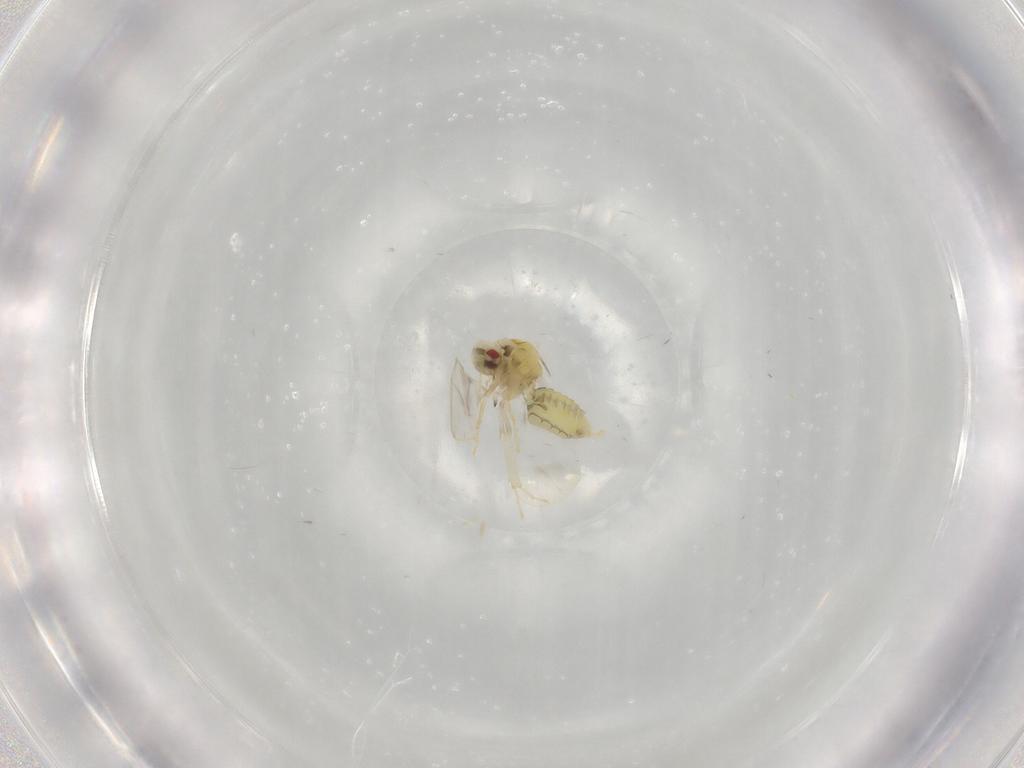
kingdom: Animalia
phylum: Arthropoda
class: Insecta
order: Hemiptera
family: Aleyrodidae
